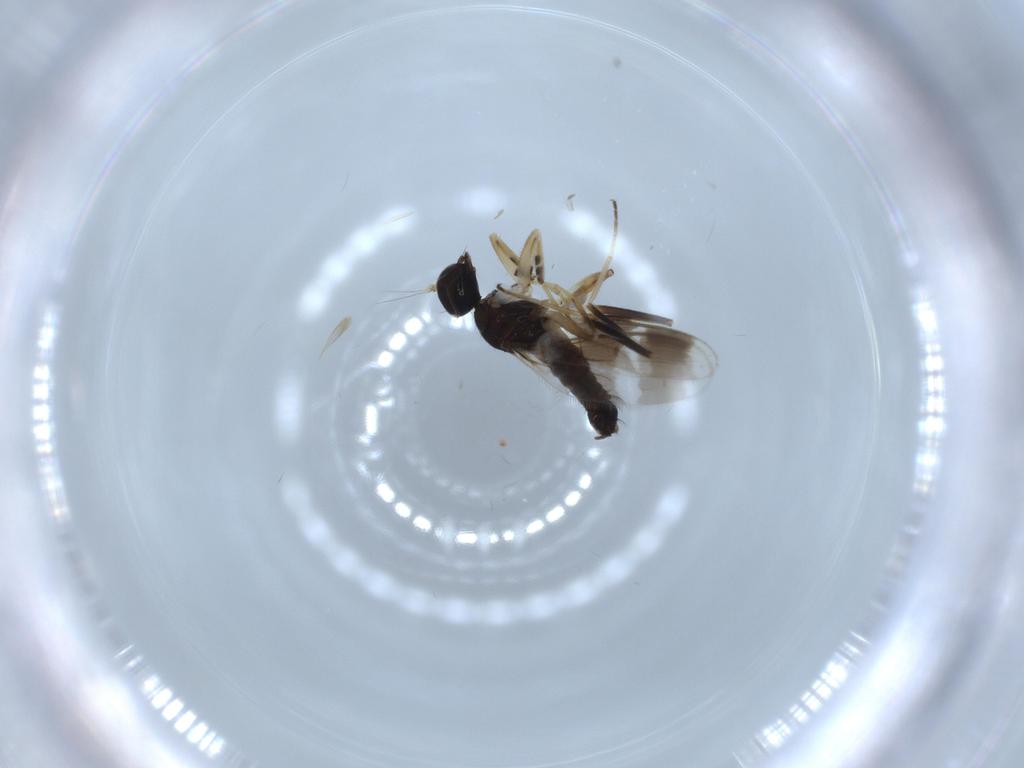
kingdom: Animalia
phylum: Arthropoda
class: Insecta
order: Diptera
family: Hybotidae
